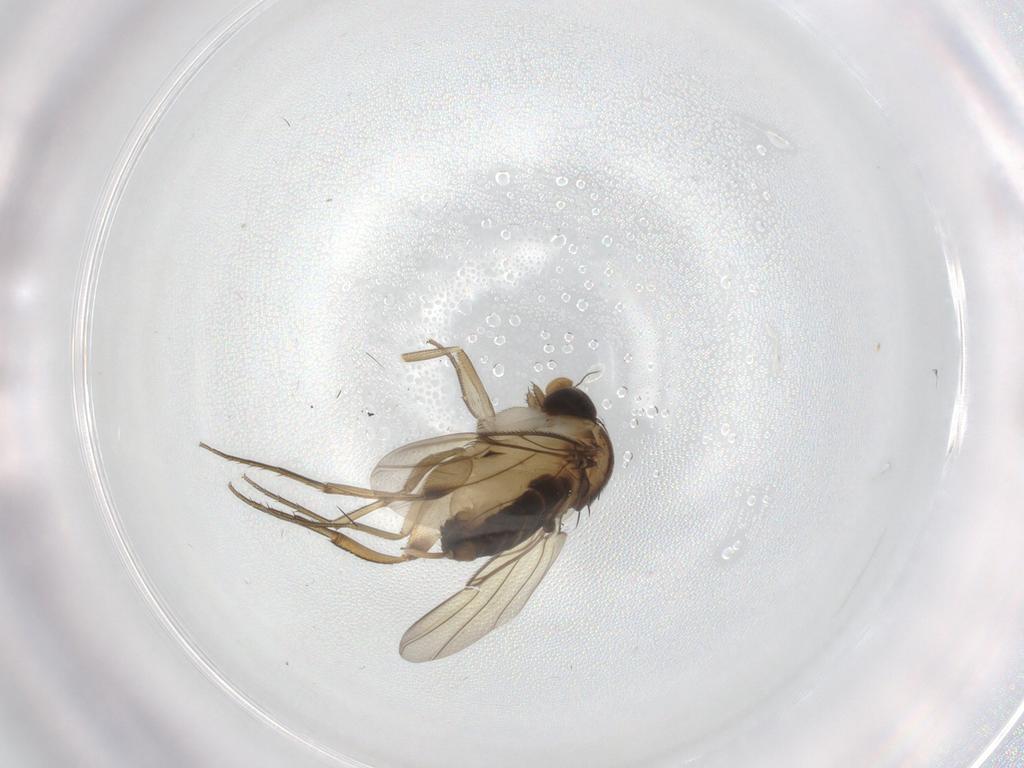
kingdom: Animalia
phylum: Arthropoda
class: Insecta
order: Diptera
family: Phoridae
